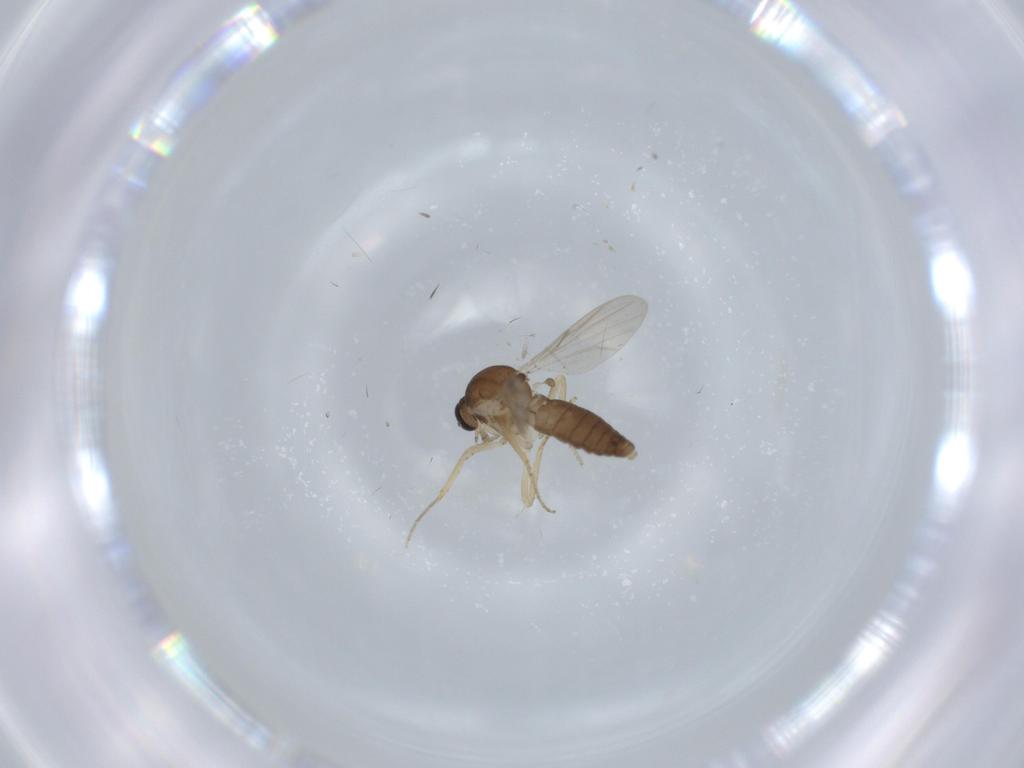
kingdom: Animalia
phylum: Arthropoda
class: Insecta
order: Diptera
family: Ceratopogonidae
